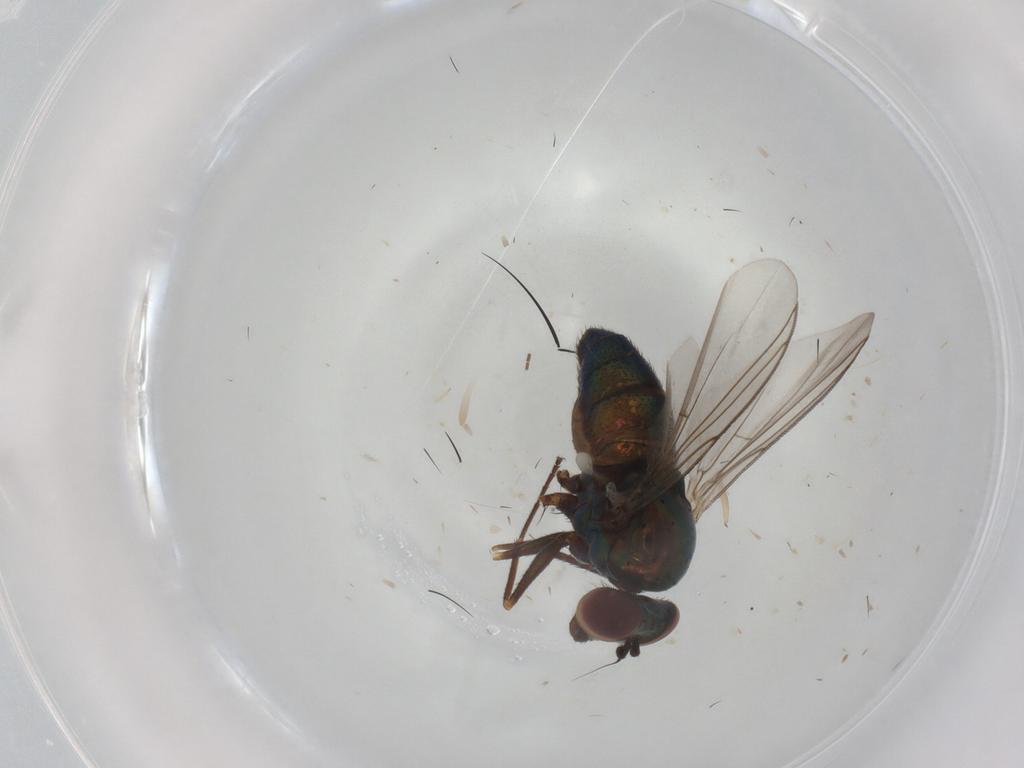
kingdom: Animalia
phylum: Arthropoda
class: Insecta
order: Diptera
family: Dolichopodidae
